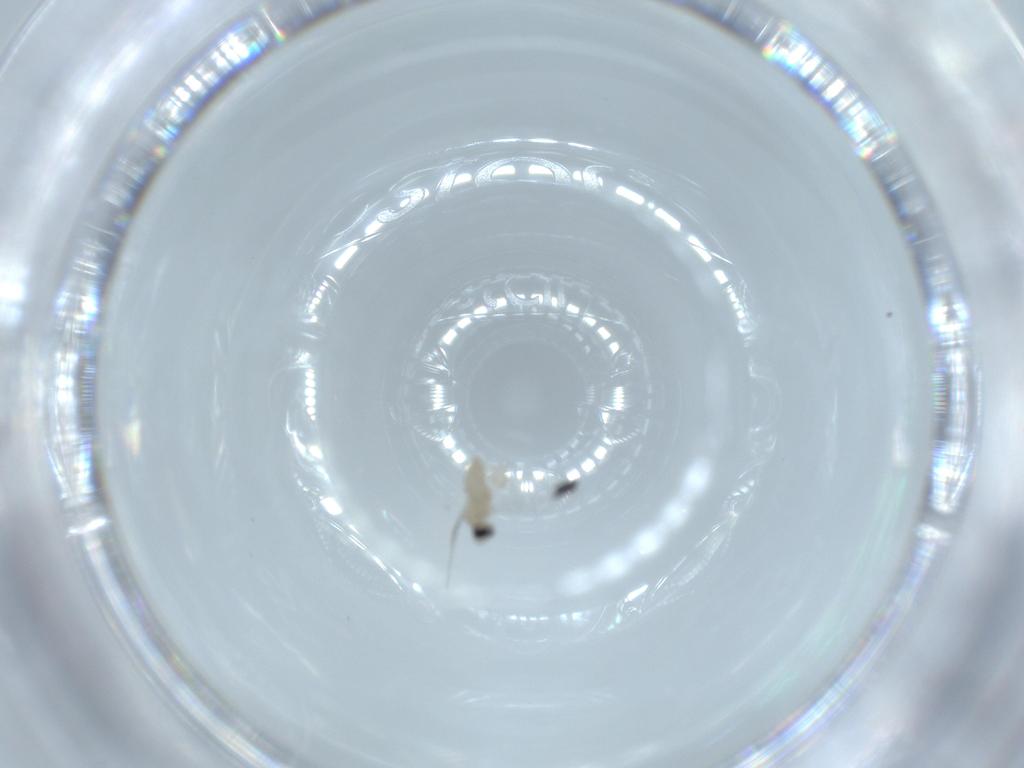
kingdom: Animalia
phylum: Arthropoda
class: Insecta
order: Diptera
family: Cecidomyiidae
